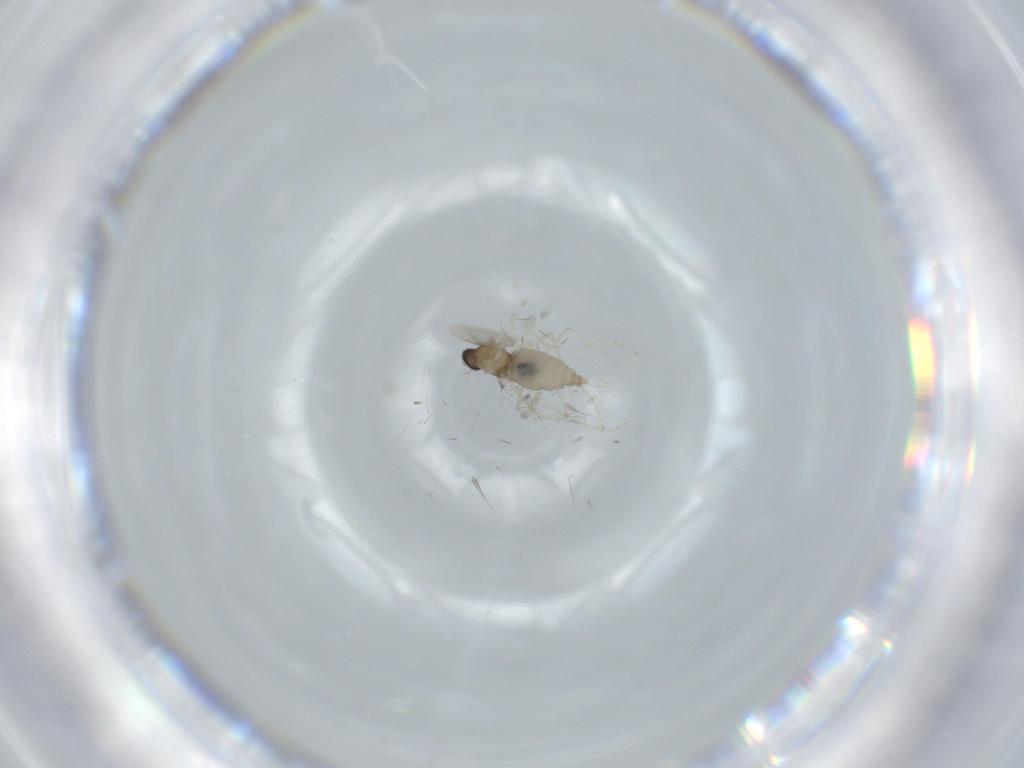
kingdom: Animalia
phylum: Arthropoda
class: Insecta
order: Diptera
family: Cecidomyiidae
